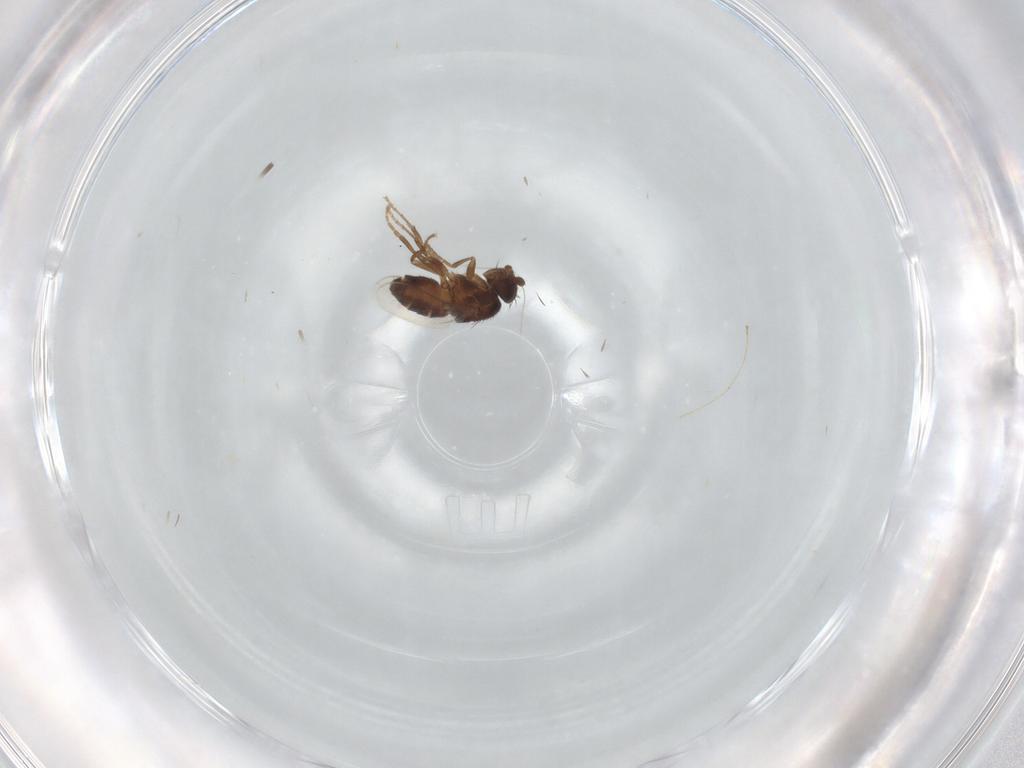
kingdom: Animalia
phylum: Arthropoda
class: Insecta
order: Diptera
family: Sphaeroceridae
